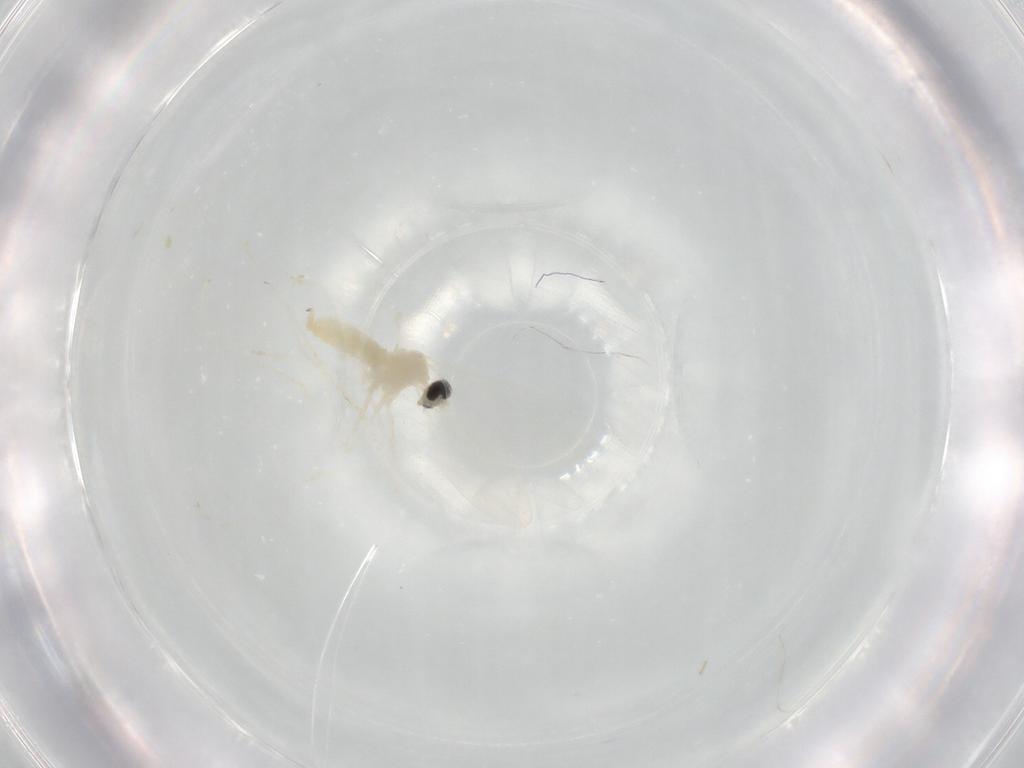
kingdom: Animalia
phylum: Arthropoda
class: Insecta
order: Diptera
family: Cecidomyiidae
